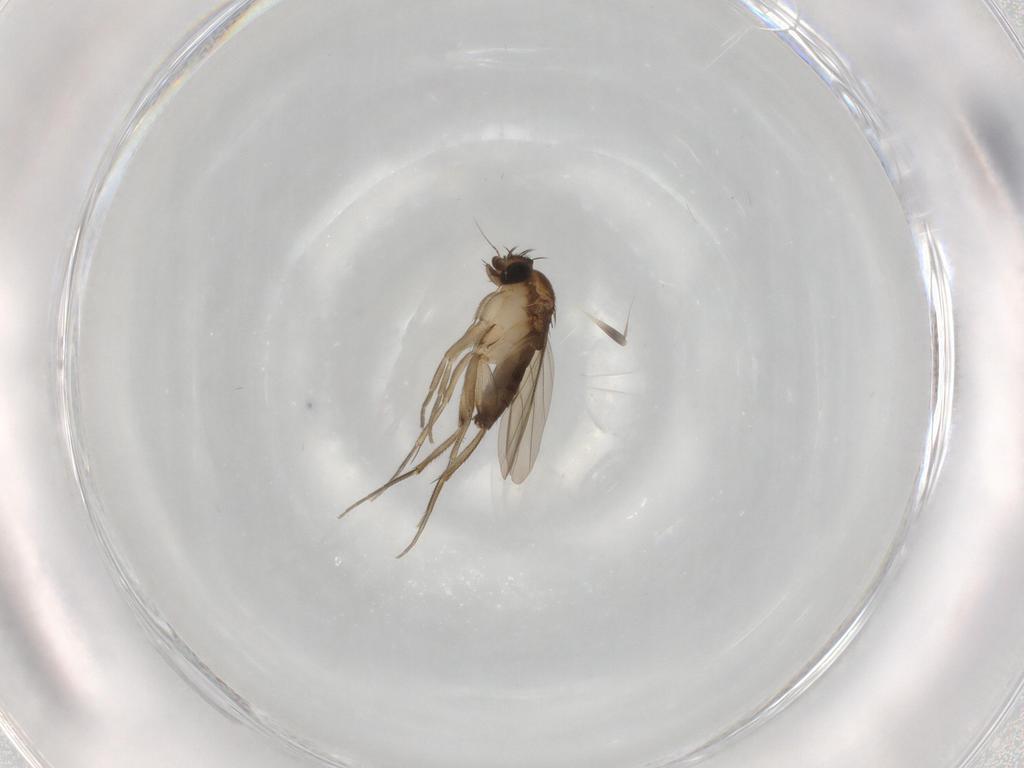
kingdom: Animalia
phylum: Arthropoda
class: Insecta
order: Diptera
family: Phoridae
